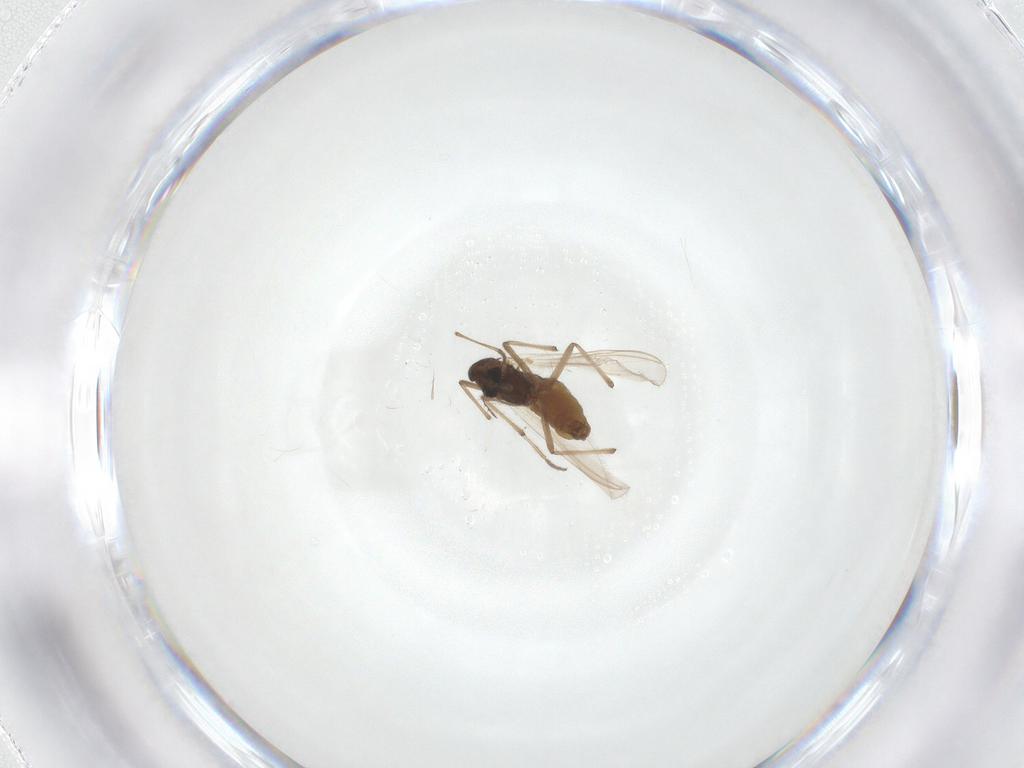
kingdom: Animalia
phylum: Arthropoda
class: Insecta
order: Diptera
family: Chironomidae
